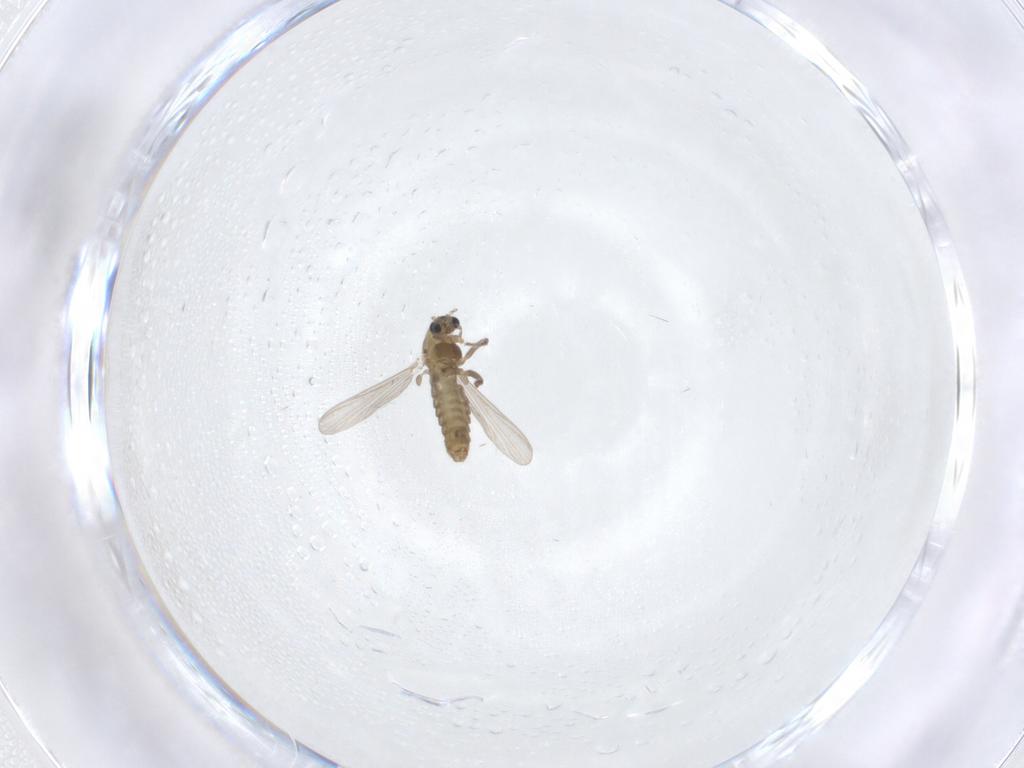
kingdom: Animalia
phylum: Arthropoda
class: Insecta
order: Diptera
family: Chironomidae
